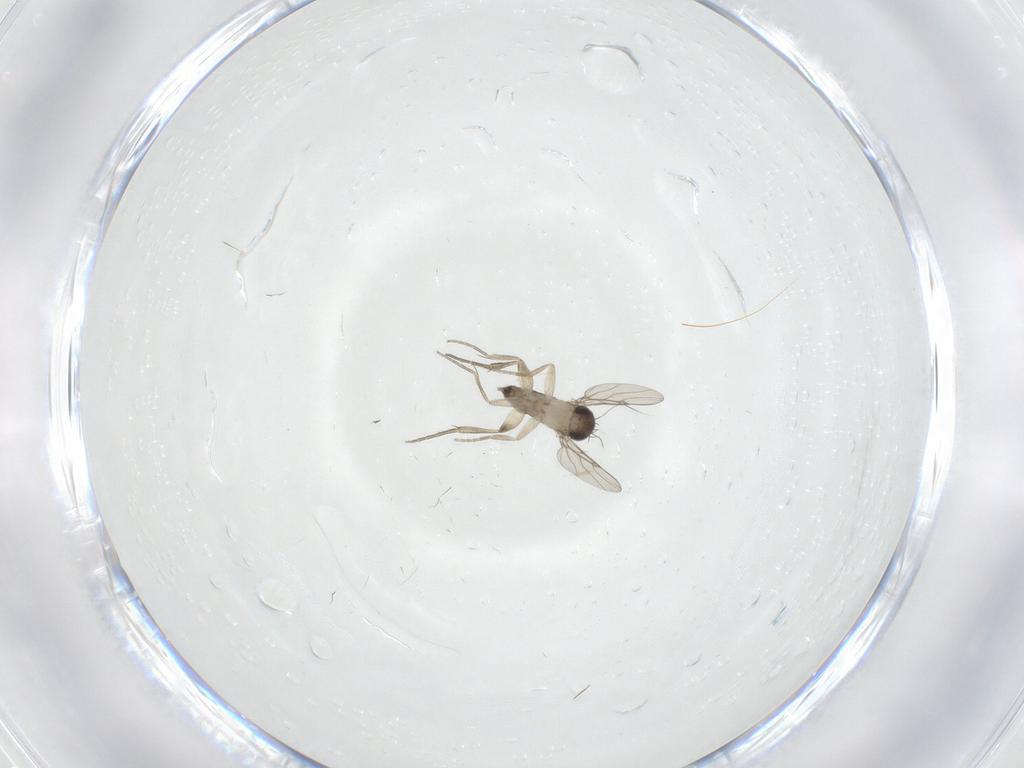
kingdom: Animalia
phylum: Arthropoda
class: Insecta
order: Diptera
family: Phoridae
